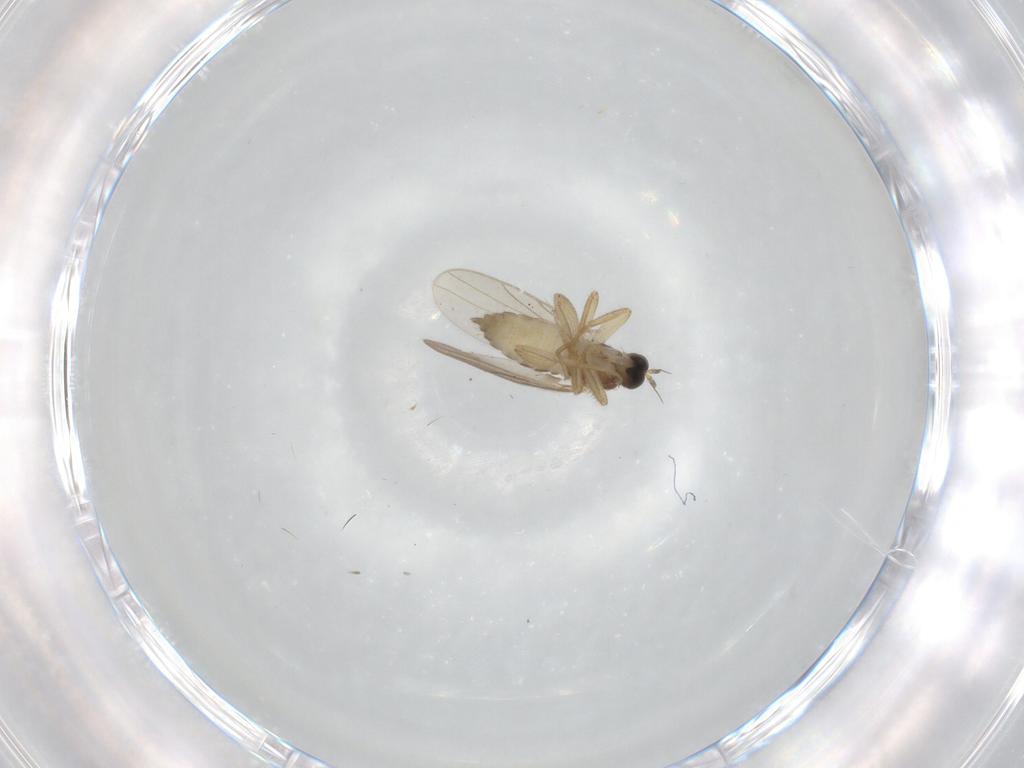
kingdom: Animalia
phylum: Arthropoda
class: Insecta
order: Diptera
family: Hybotidae
